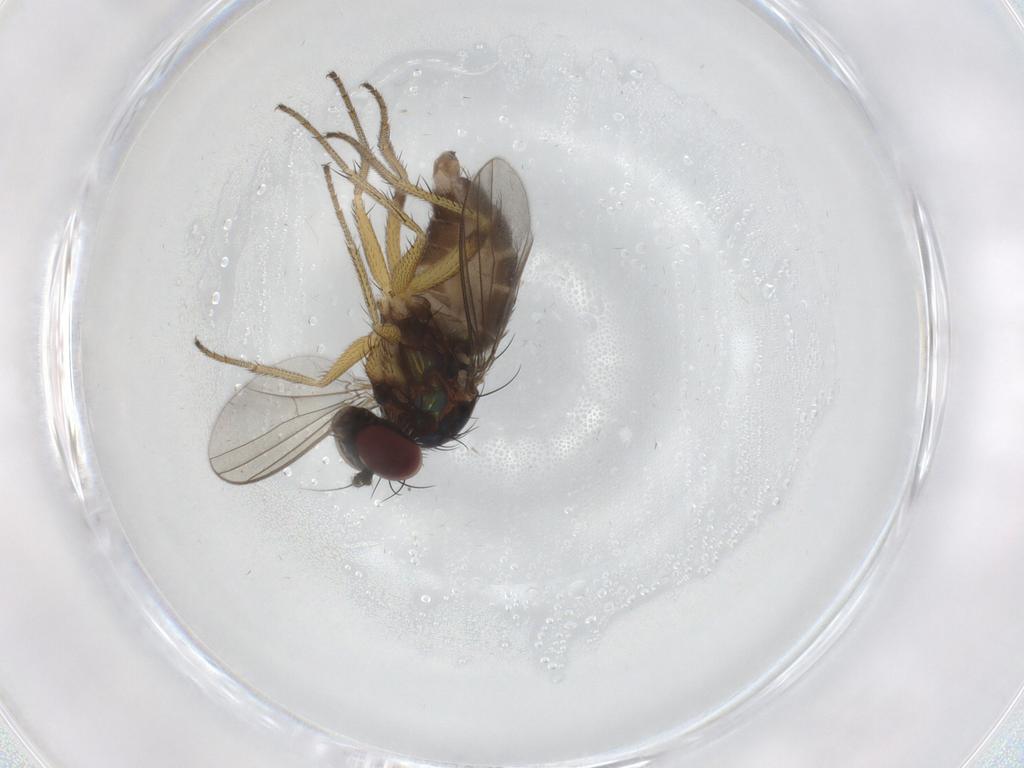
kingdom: Animalia
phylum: Arthropoda
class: Insecta
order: Diptera
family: Dolichopodidae
